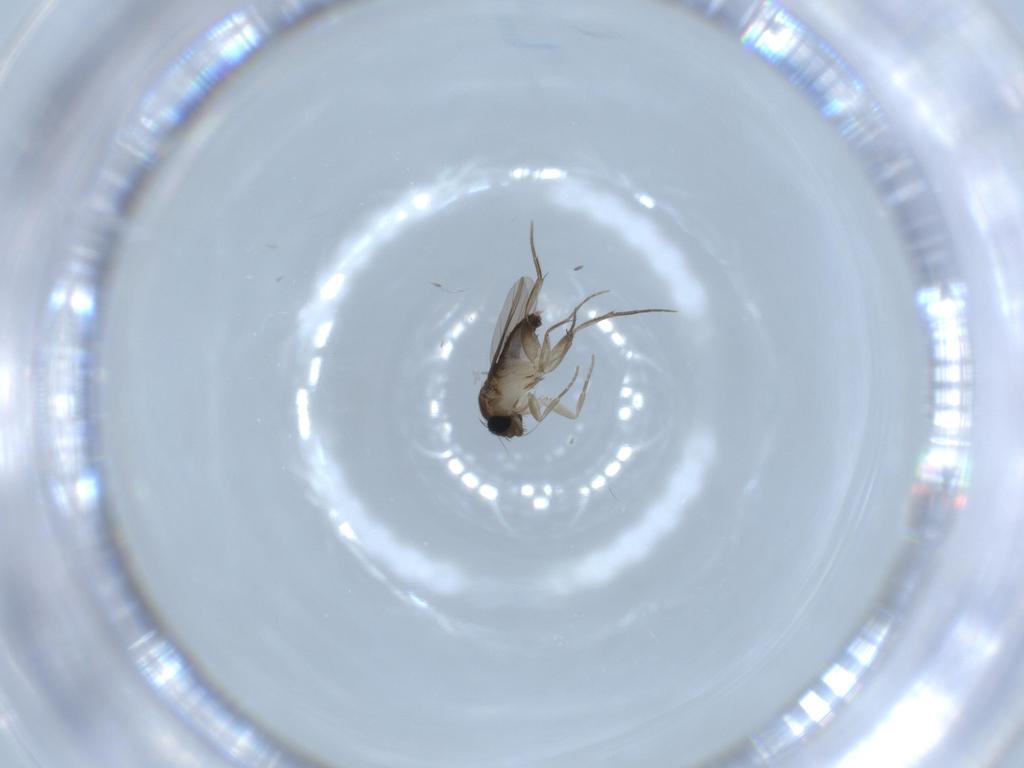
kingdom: Animalia
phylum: Arthropoda
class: Insecta
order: Diptera
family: Phoridae
